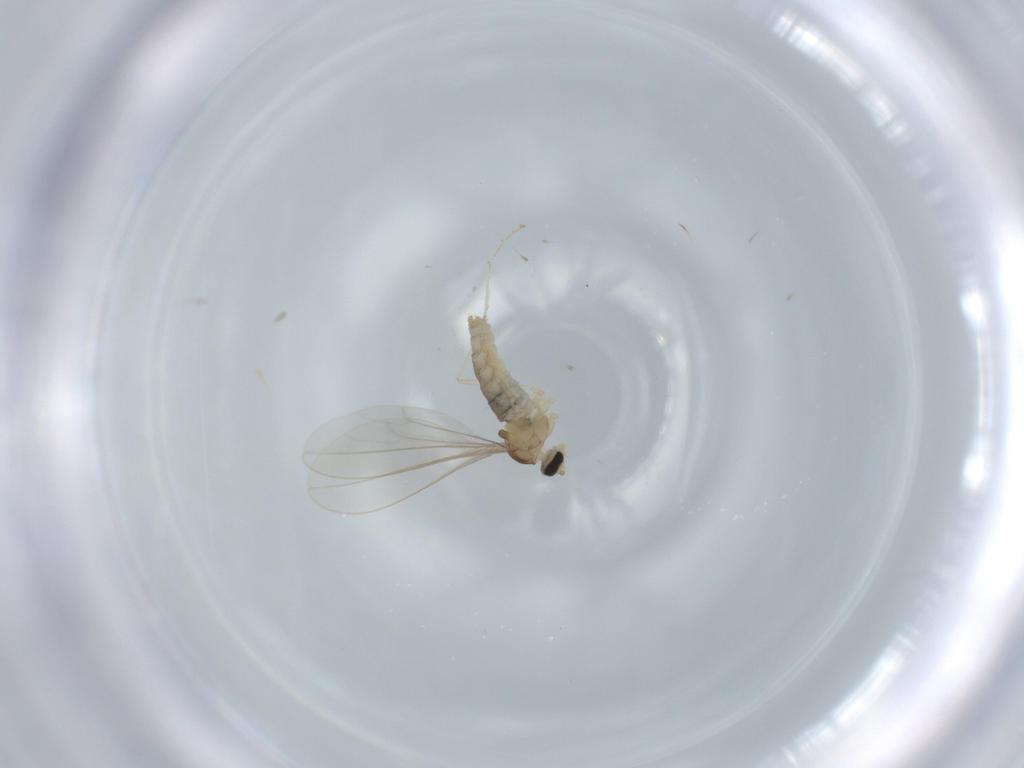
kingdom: Animalia
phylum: Arthropoda
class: Insecta
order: Diptera
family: Cecidomyiidae
